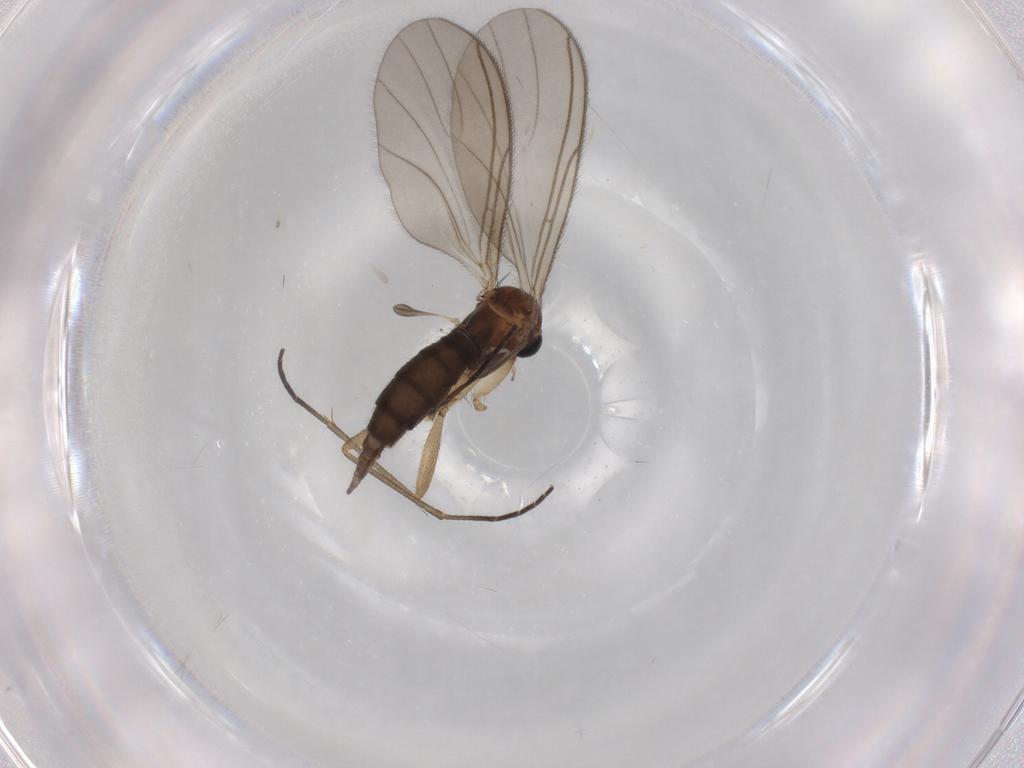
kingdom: Animalia
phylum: Arthropoda
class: Insecta
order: Diptera
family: Sciaridae
